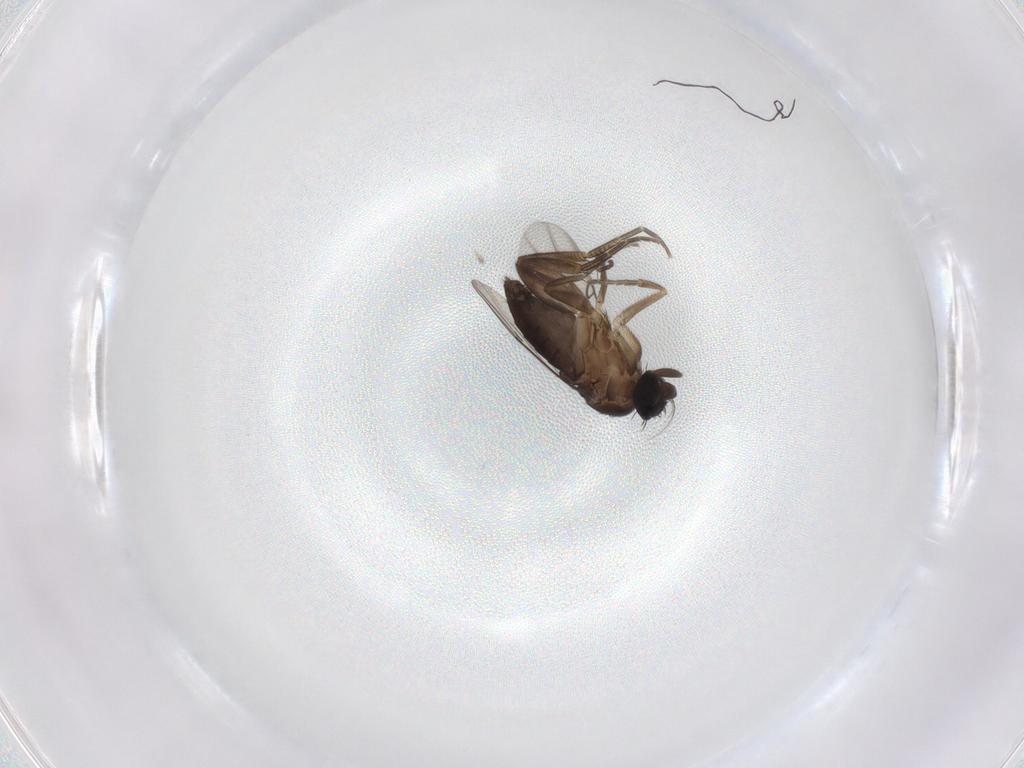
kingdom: Animalia
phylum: Arthropoda
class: Insecta
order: Diptera
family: Phoridae
